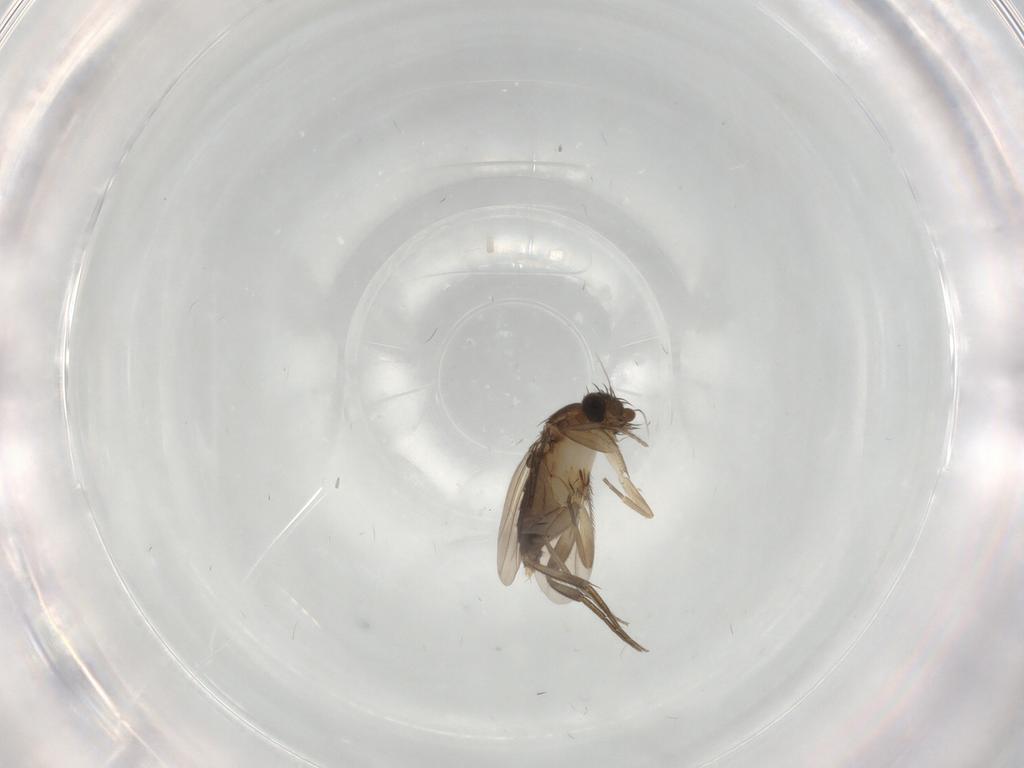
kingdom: Animalia
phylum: Arthropoda
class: Insecta
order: Diptera
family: Phoridae
